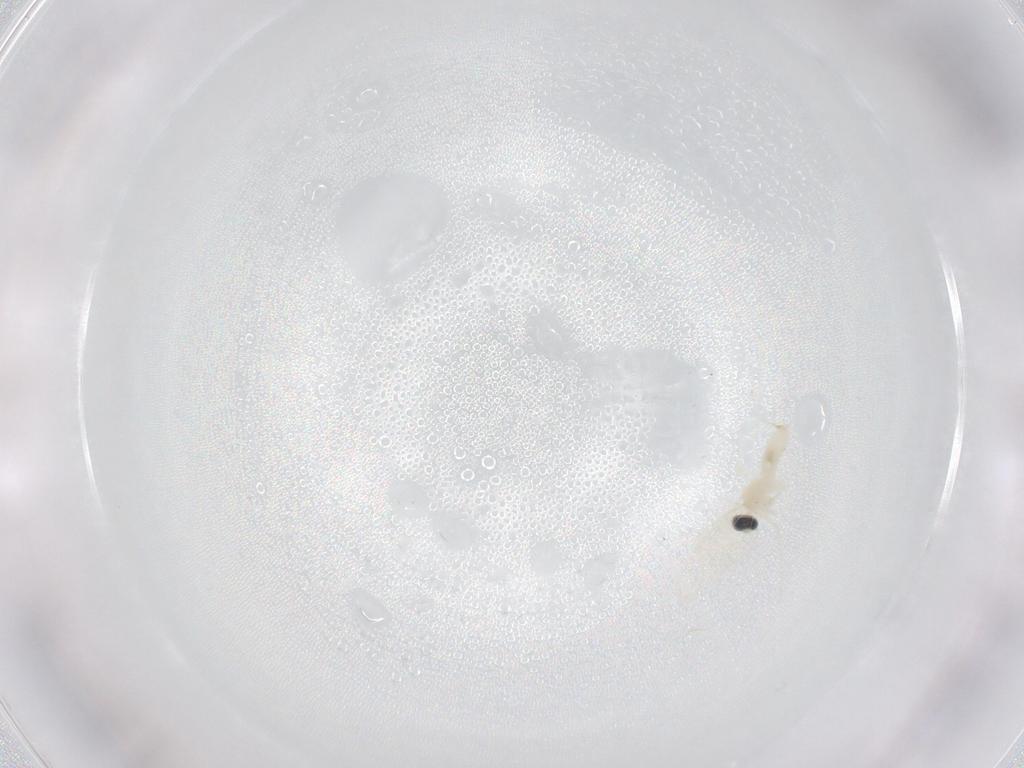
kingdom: Animalia
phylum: Arthropoda
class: Insecta
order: Diptera
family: Cecidomyiidae
